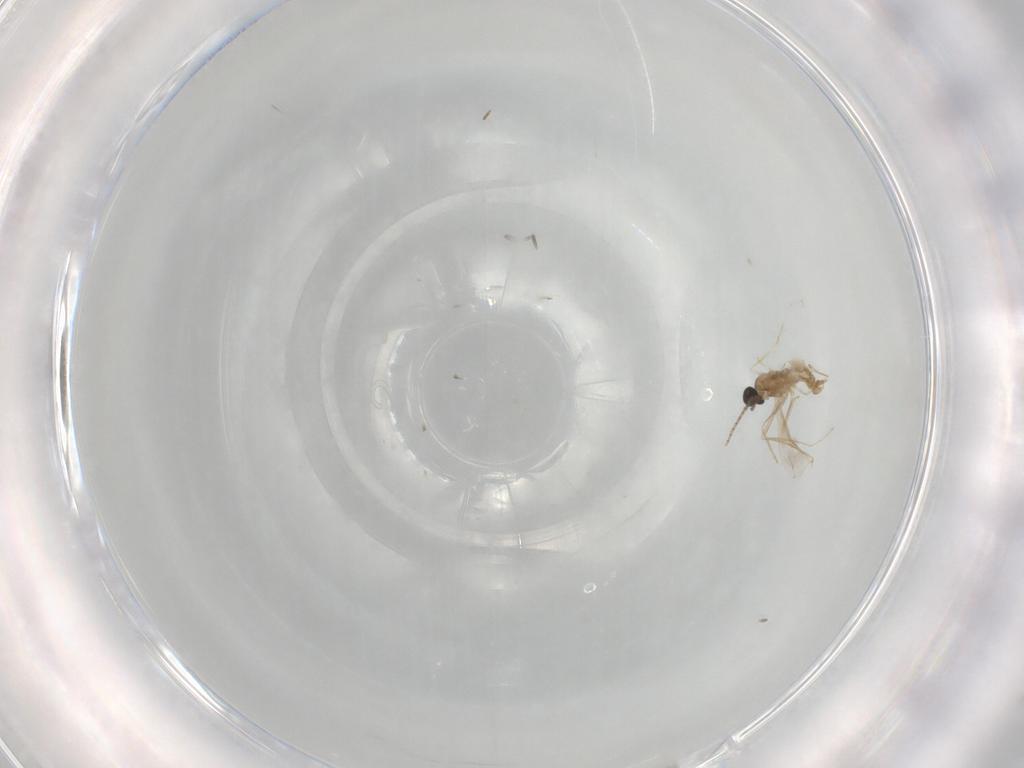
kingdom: Animalia
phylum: Arthropoda
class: Insecta
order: Diptera
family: Cecidomyiidae
